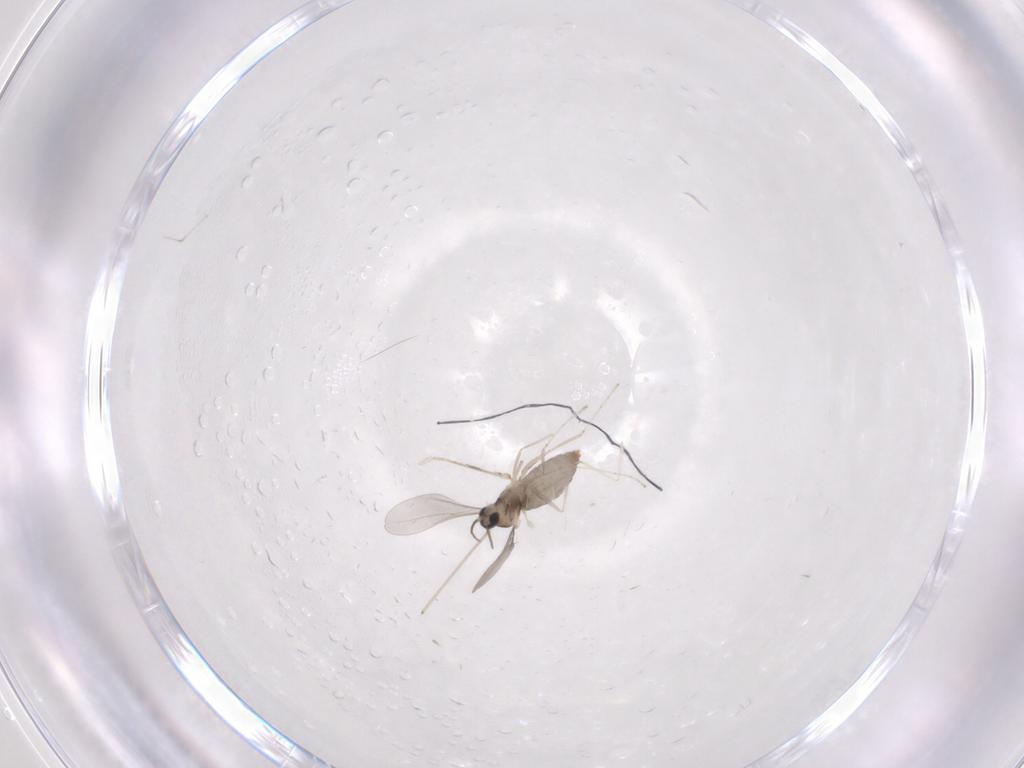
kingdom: Animalia
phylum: Arthropoda
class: Insecta
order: Diptera
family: Cecidomyiidae
